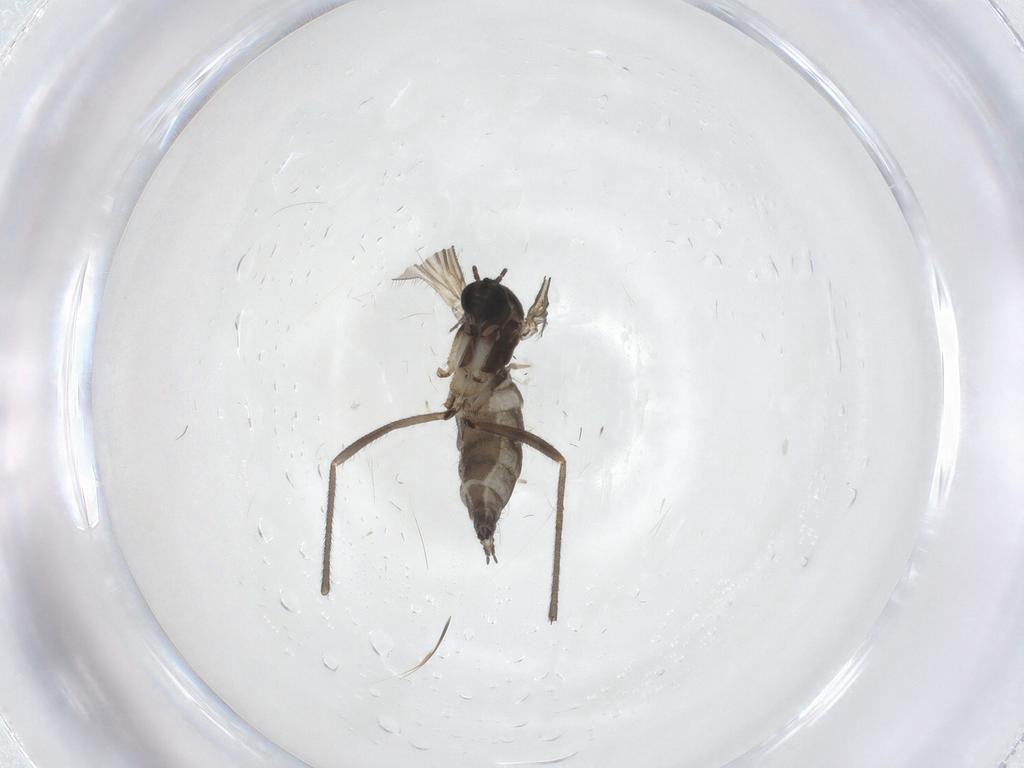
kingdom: Animalia
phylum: Arthropoda
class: Insecta
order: Diptera
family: Sciaridae
